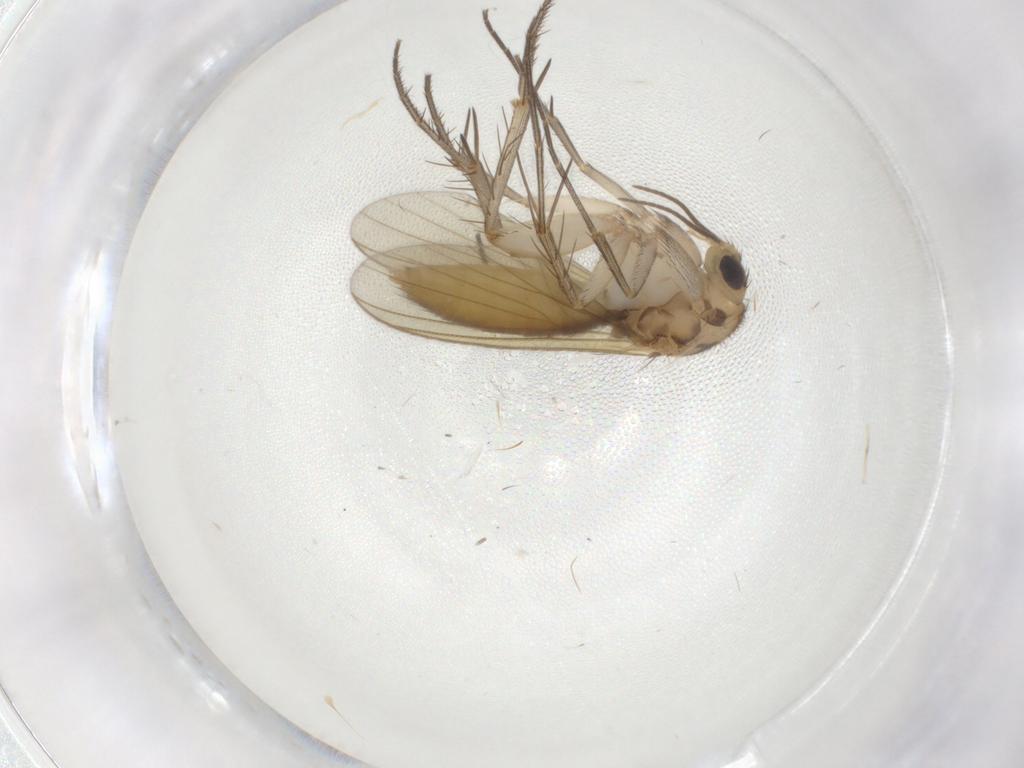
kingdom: Animalia
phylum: Arthropoda
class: Insecta
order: Diptera
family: Mycetophilidae
